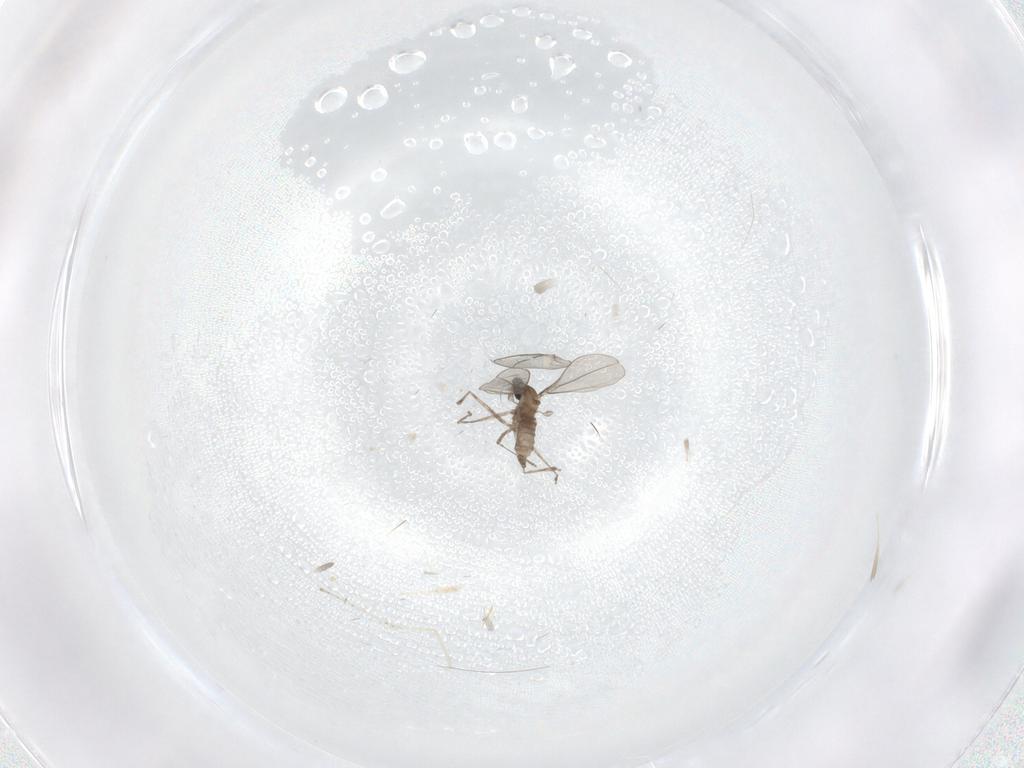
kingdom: Animalia
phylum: Arthropoda
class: Insecta
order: Diptera
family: Cecidomyiidae
